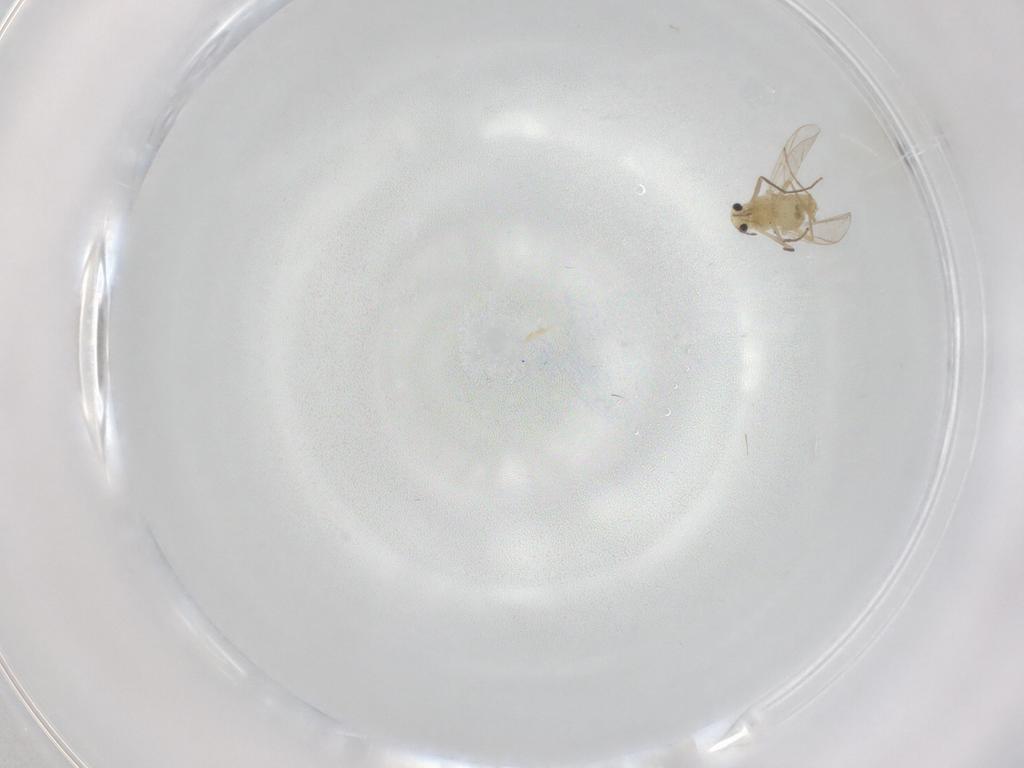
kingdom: Animalia
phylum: Arthropoda
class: Insecta
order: Diptera
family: Chironomidae
